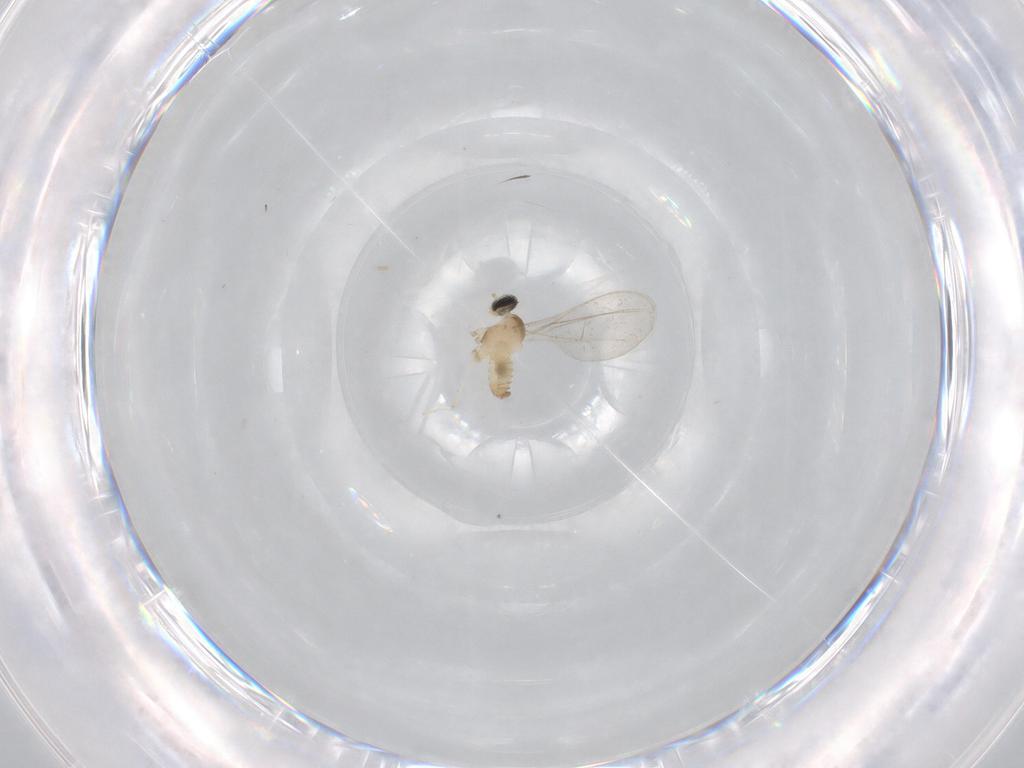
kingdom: Animalia
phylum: Arthropoda
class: Insecta
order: Diptera
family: Cecidomyiidae
